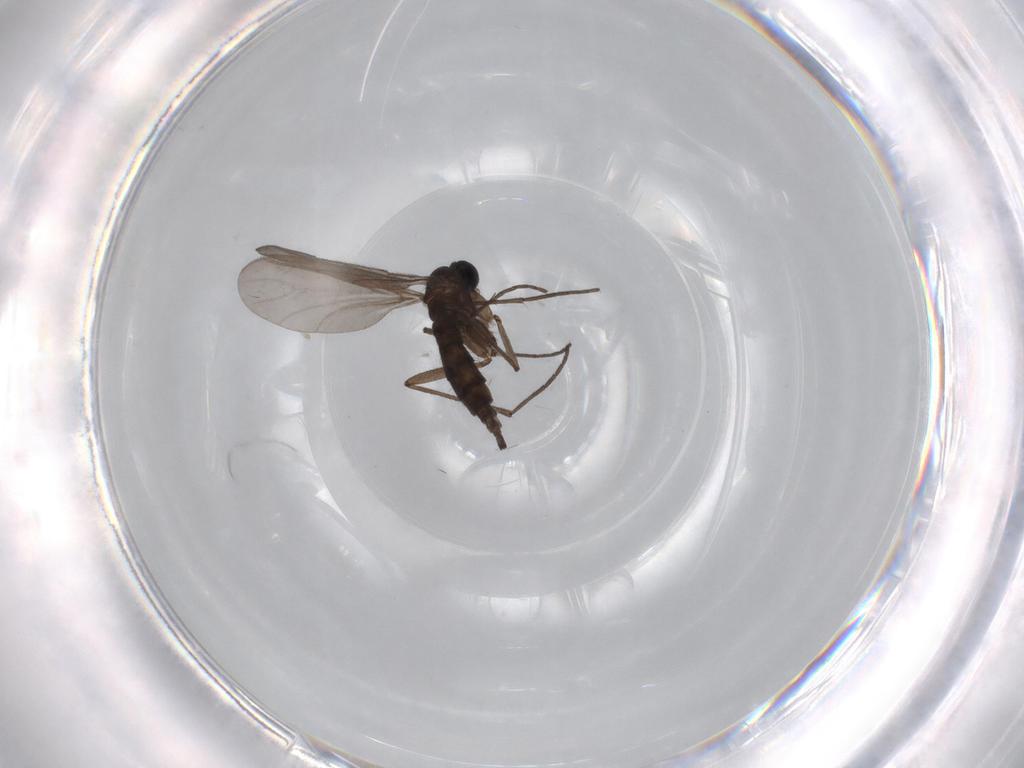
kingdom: Animalia
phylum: Arthropoda
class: Insecta
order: Diptera
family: Sciaridae
